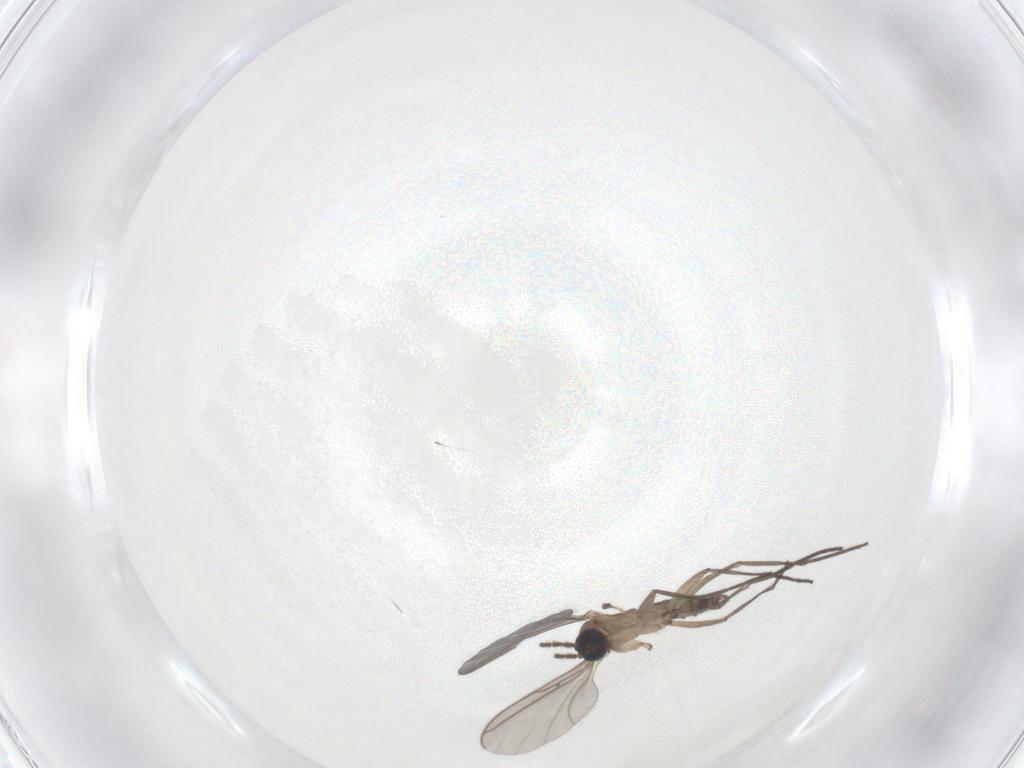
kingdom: Animalia
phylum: Arthropoda
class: Insecta
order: Diptera
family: Sciaridae
